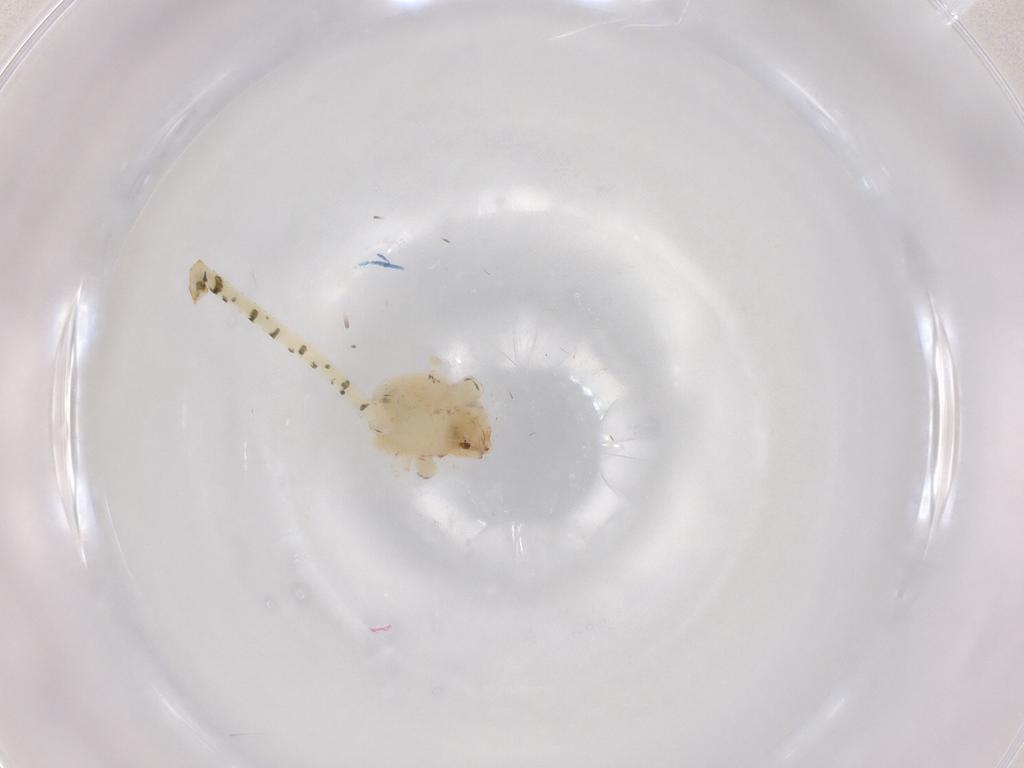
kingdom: Animalia
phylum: Arthropoda
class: Arachnida
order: Araneae
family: Theridiidae
